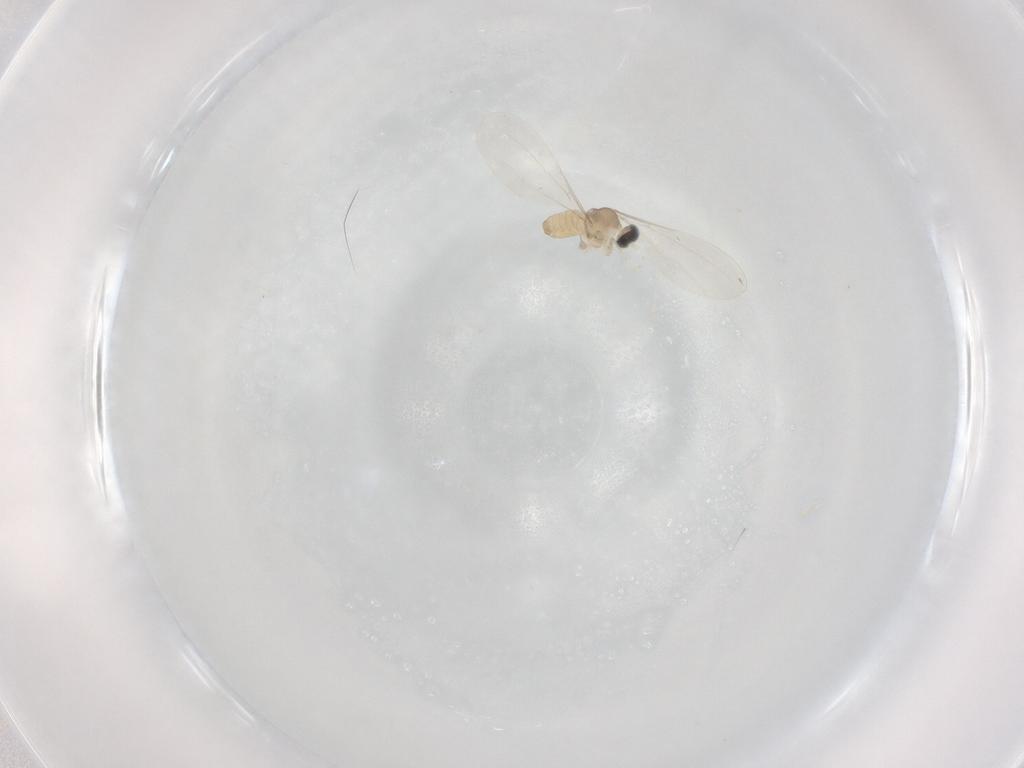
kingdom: Animalia
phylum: Arthropoda
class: Insecta
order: Diptera
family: Cecidomyiidae
